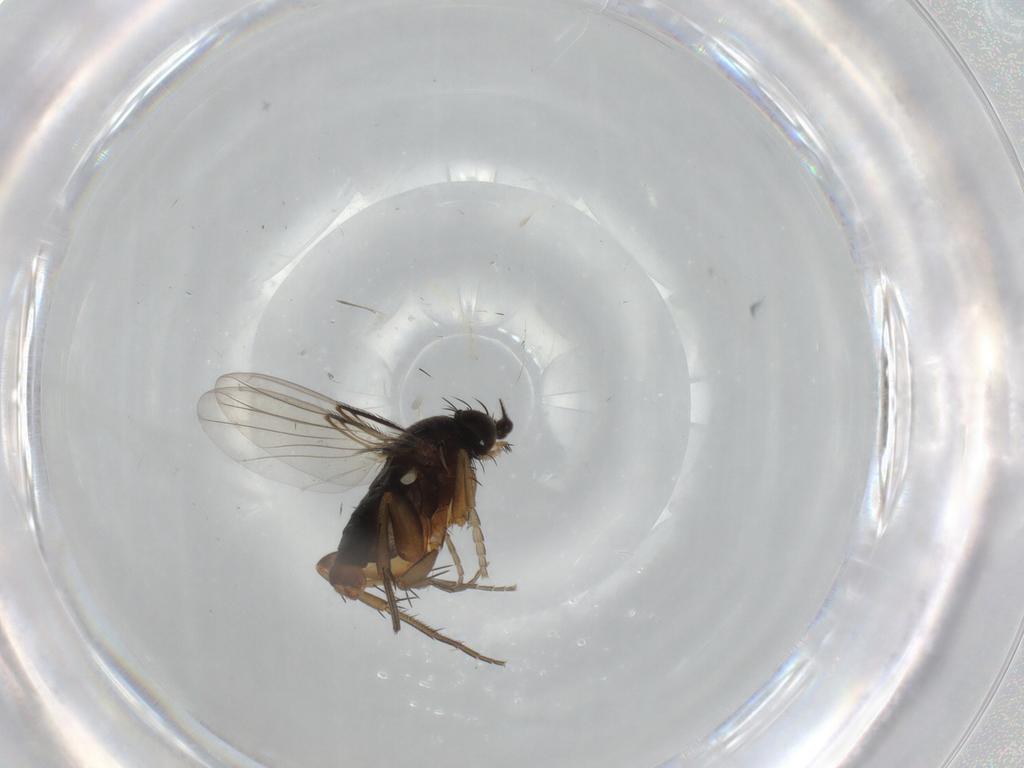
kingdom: Animalia
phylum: Arthropoda
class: Insecta
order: Diptera
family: Phoridae
